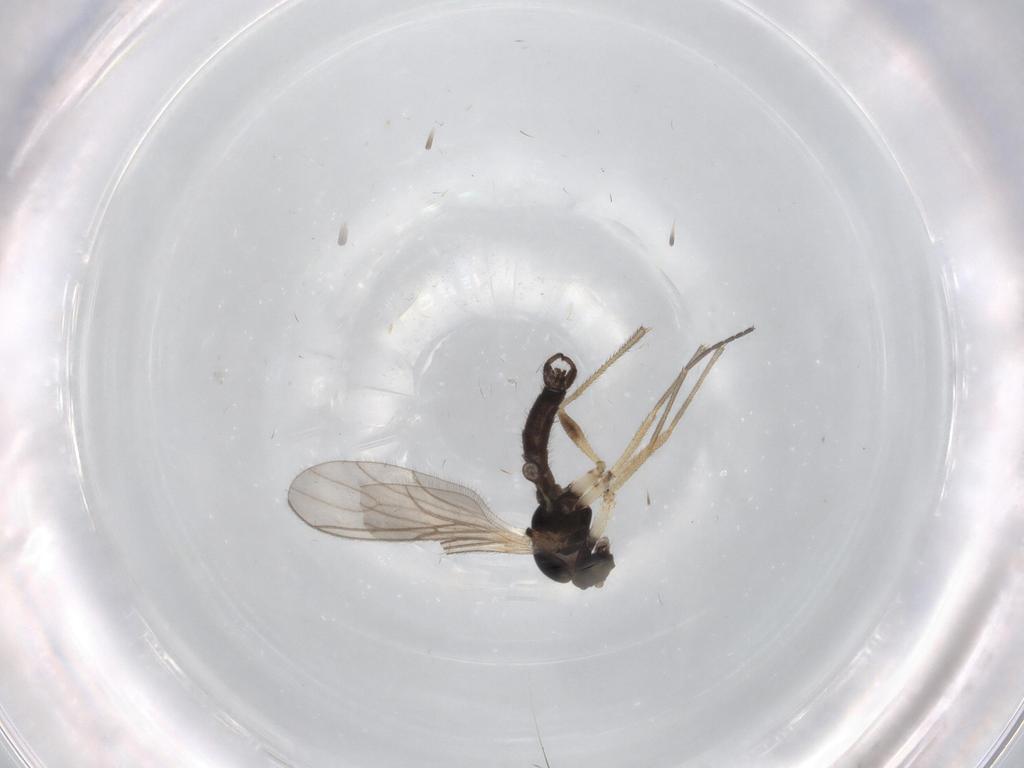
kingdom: Animalia
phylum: Arthropoda
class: Insecta
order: Diptera
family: Sciaridae
